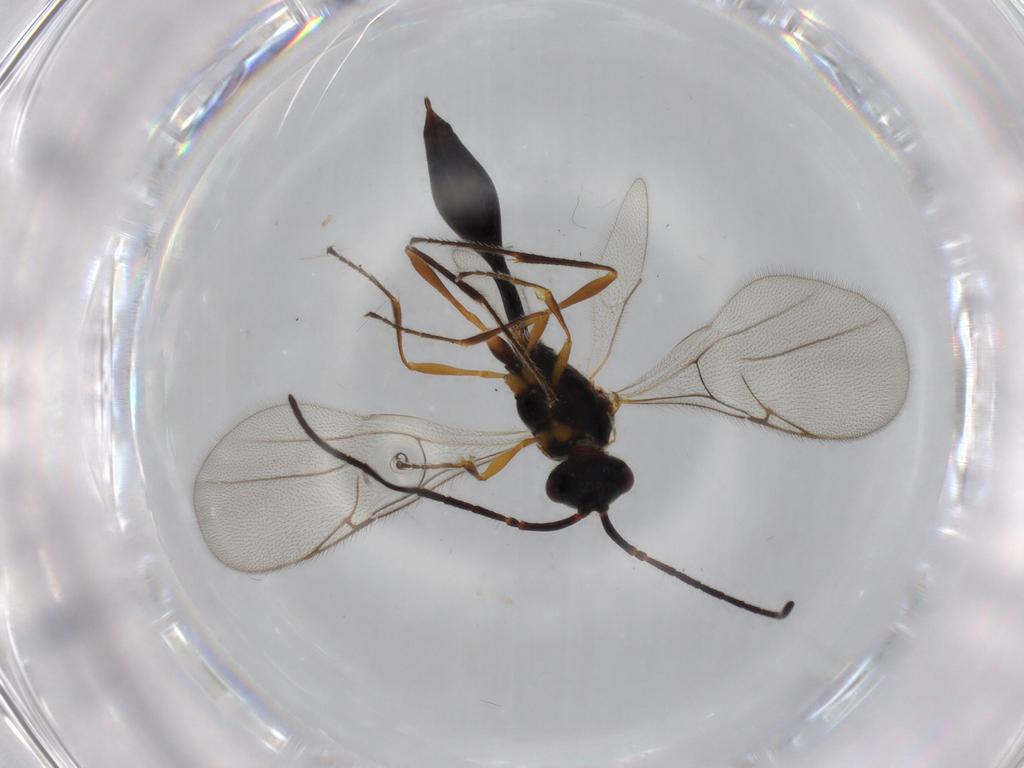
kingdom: Animalia
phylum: Arthropoda
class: Insecta
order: Hymenoptera
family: Diapriidae
